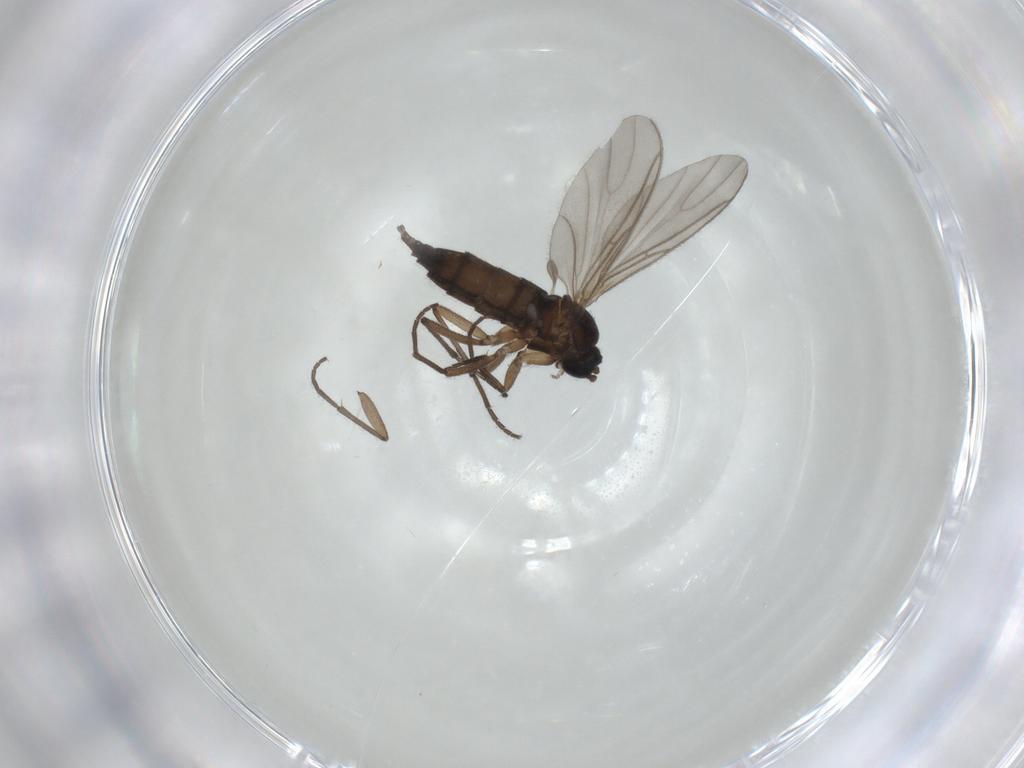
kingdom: Animalia
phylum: Arthropoda
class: Insecta
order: Diptera
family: Sciaridae
